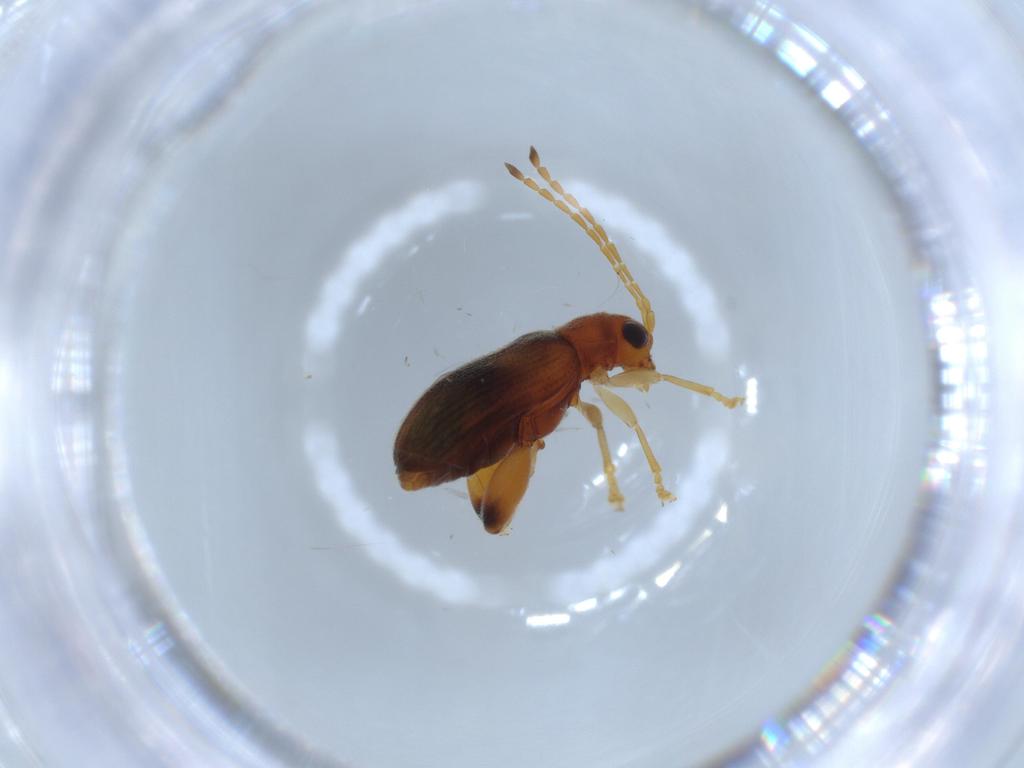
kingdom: Animalia
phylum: Arthropoda
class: Insecta
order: Coleoptera
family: Chrysomelidae
